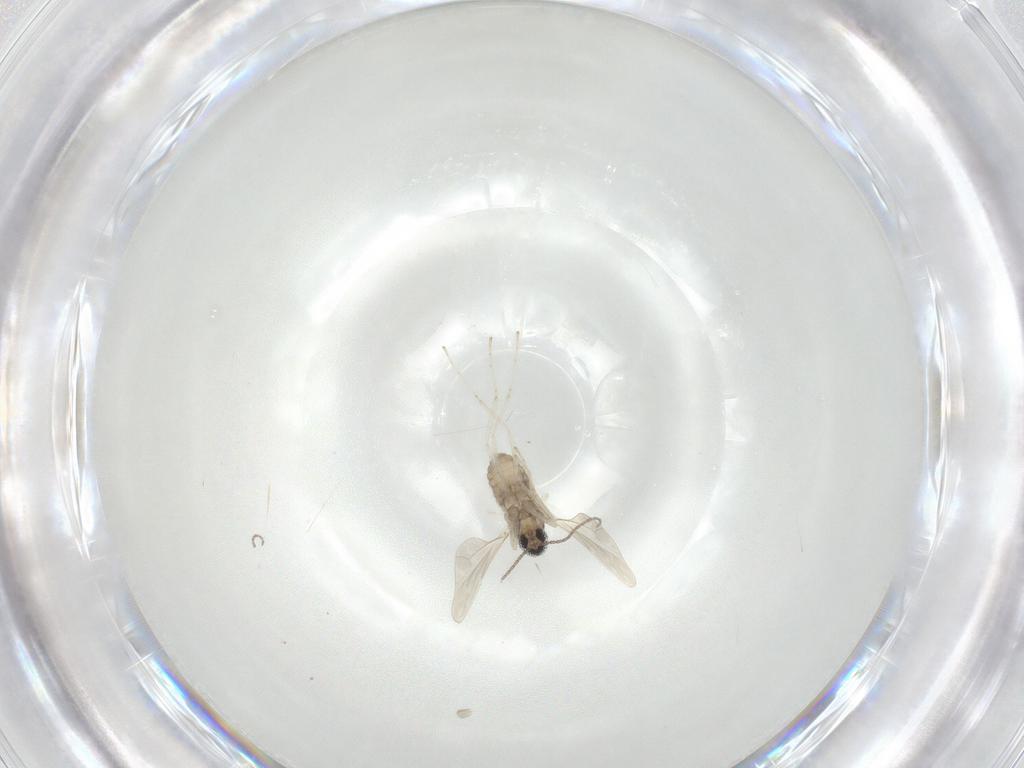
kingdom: Animalia
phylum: Arthropoda
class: Insecta
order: Diptera
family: Cecidomyiidae
